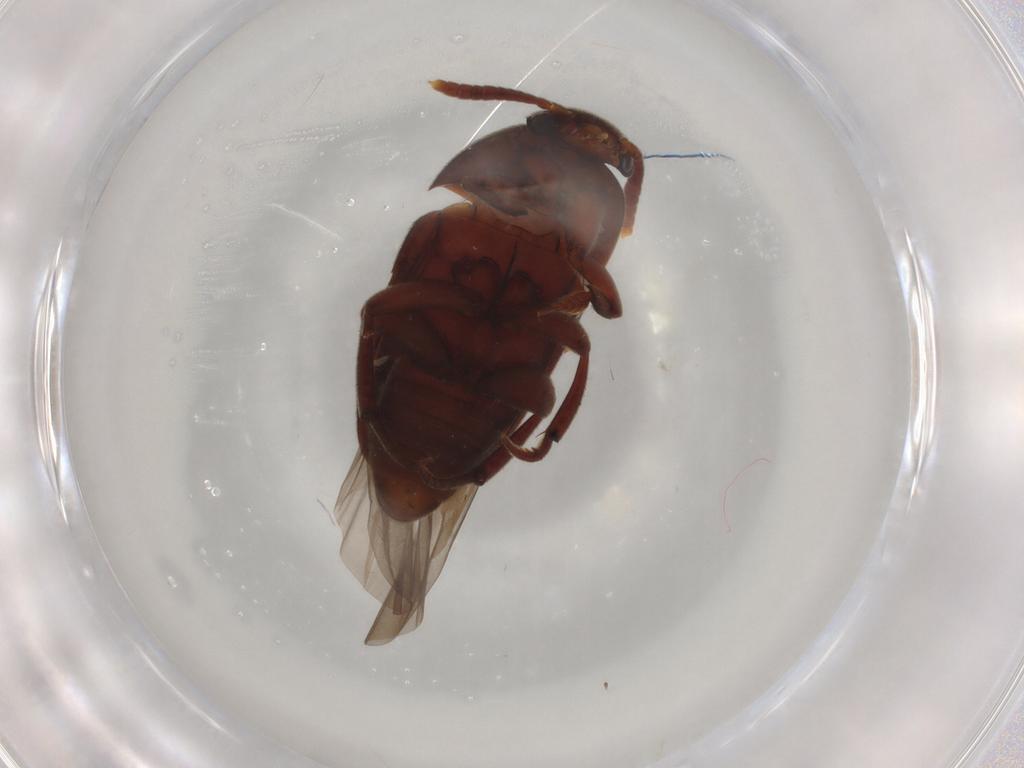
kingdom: Animalia
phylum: Arthropoda
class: Insecta
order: Coleoptera
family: Leiodidae
